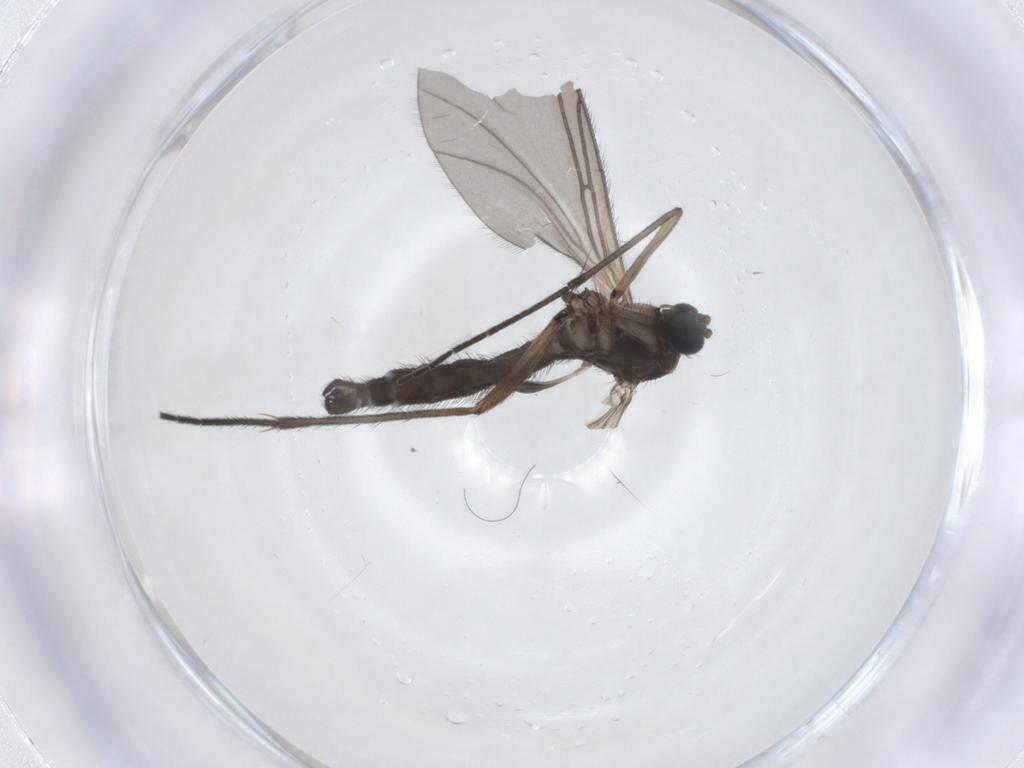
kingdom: Animalia
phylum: Arthropoda
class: Insecta
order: Diptera
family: Sciaridae
